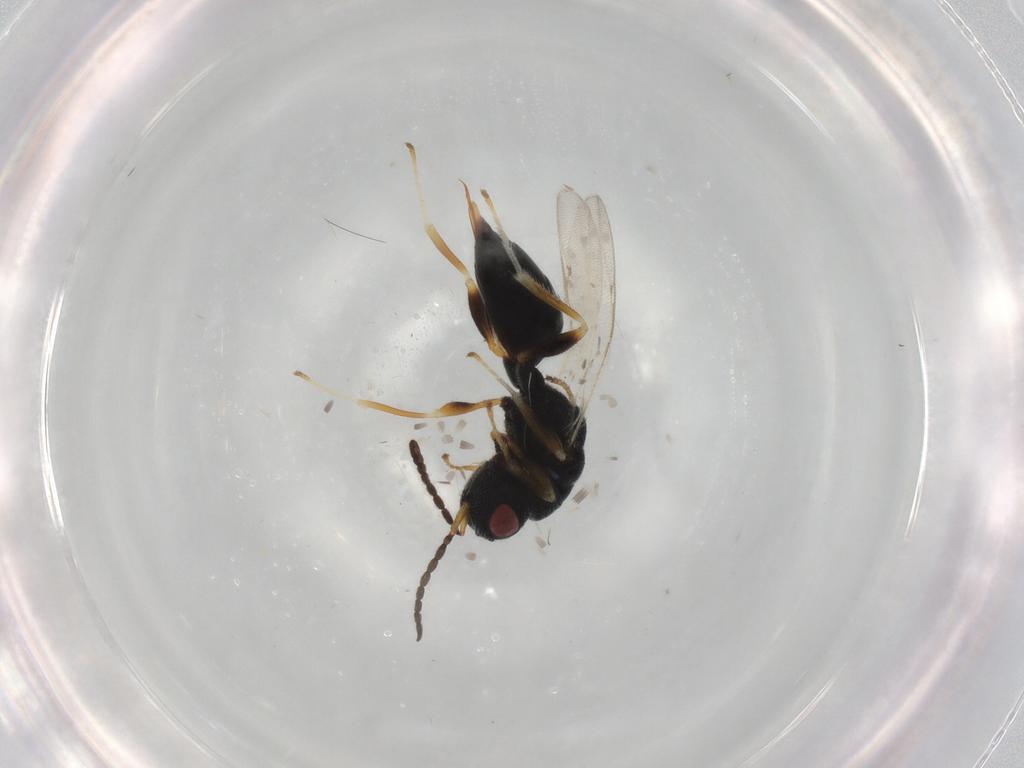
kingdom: Animalia
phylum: Arthropoda
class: Insecta
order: Hymenoptera
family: Eurytomidae
